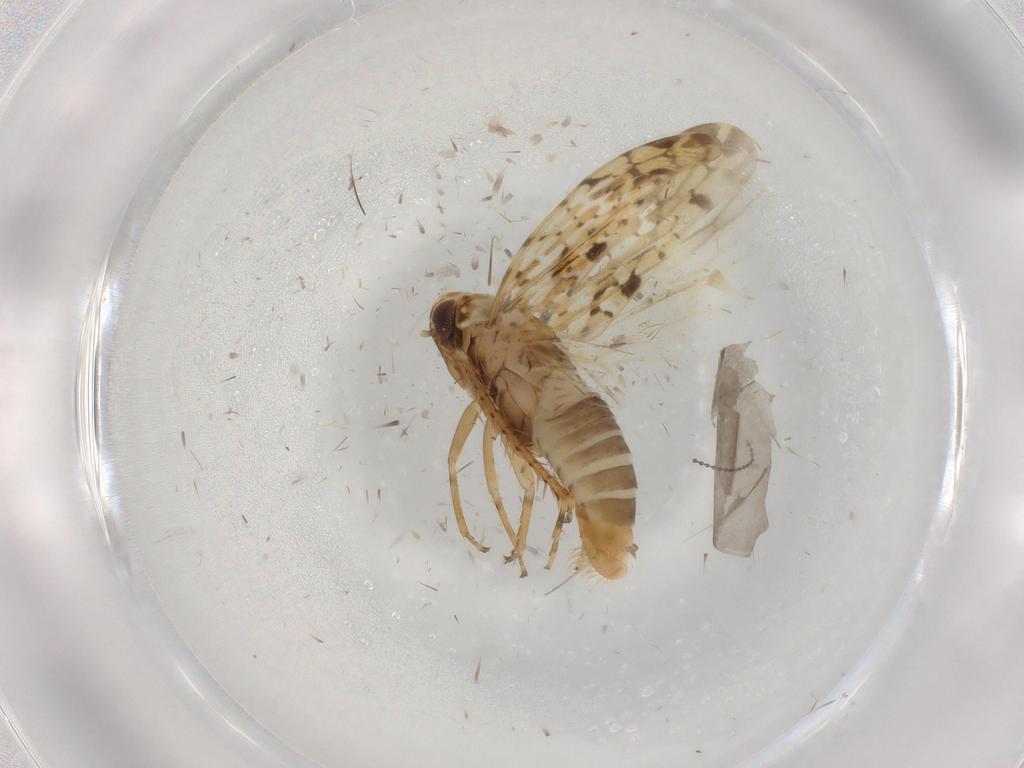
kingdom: Animalia
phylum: Arthropoda
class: Insecta
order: Hemiptera
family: Cicadellidae
